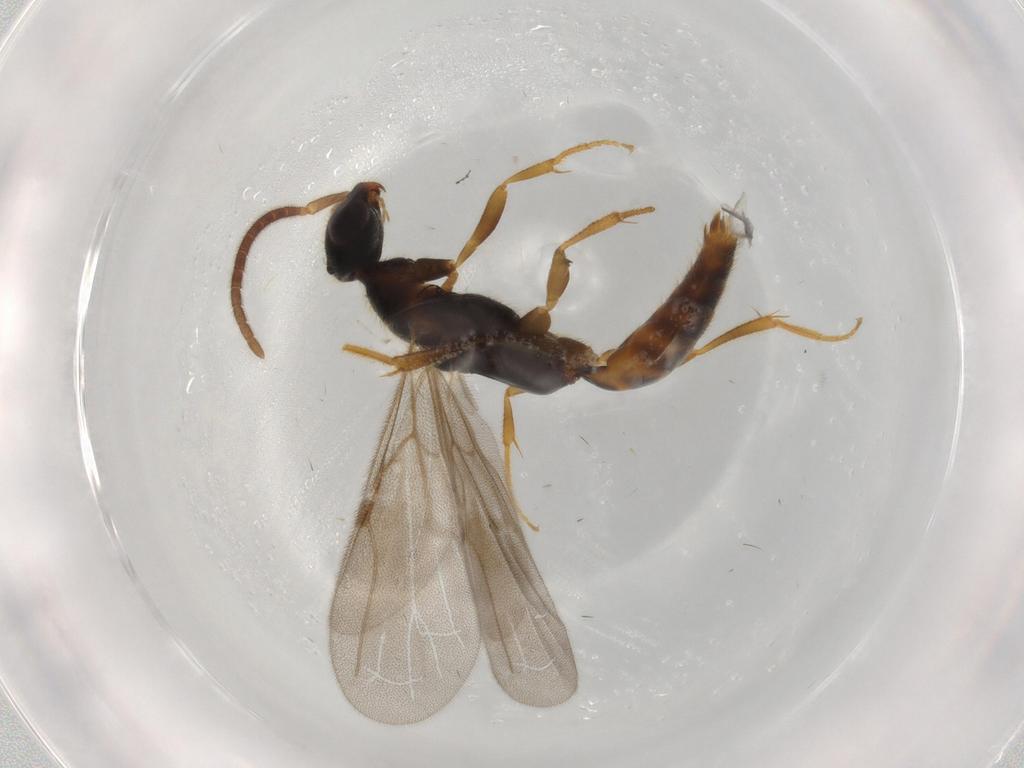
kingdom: Animalia
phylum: Arthropoda
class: Insecta
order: Hymenoptera
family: Bethylidae
